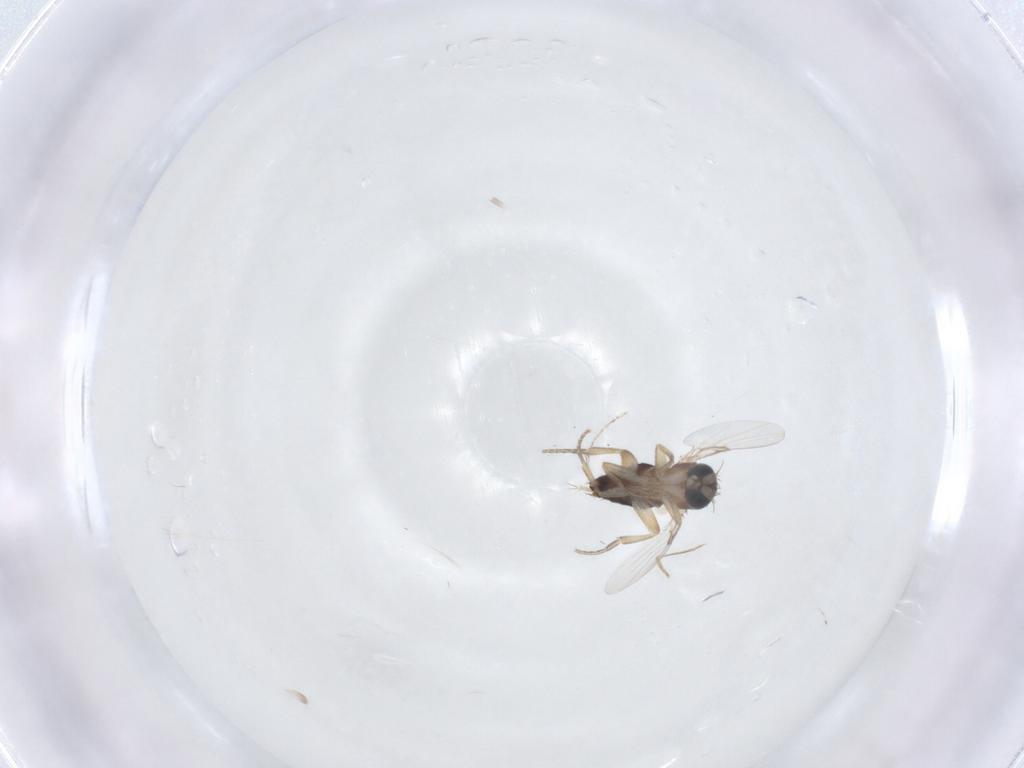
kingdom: Animalia
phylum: Arthropoda
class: Insecta
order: Diptera
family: Phoridae
